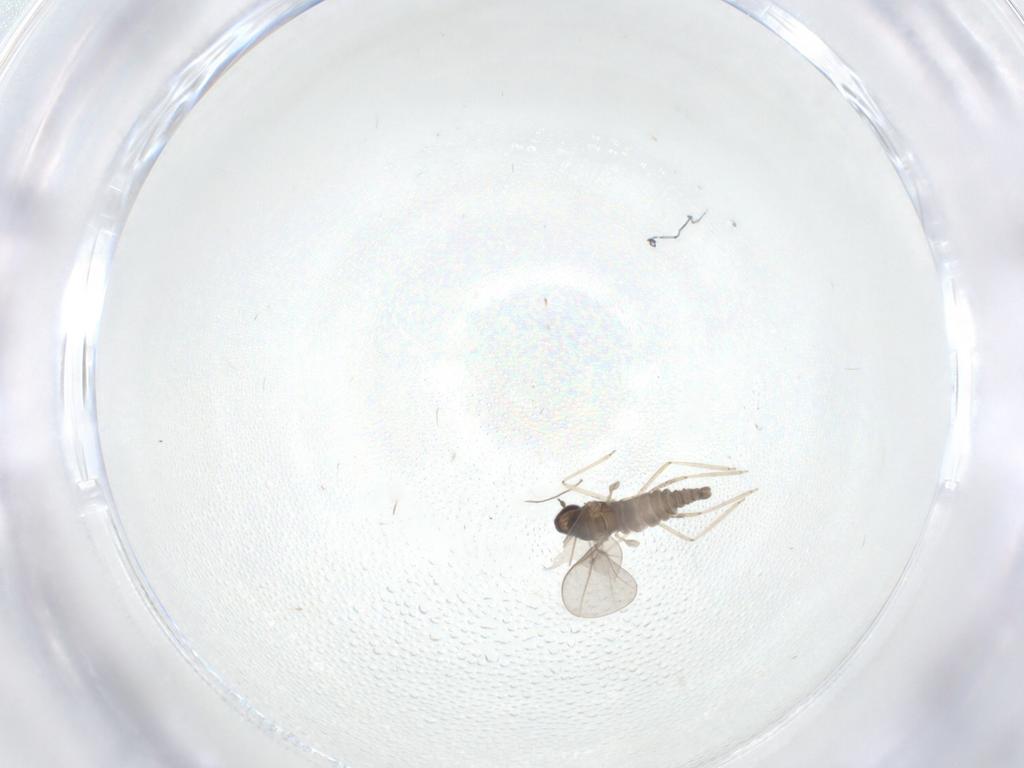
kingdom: Animalia
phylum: Arthropoda
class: Insecta
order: Diptera
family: Cecidomyiidae
